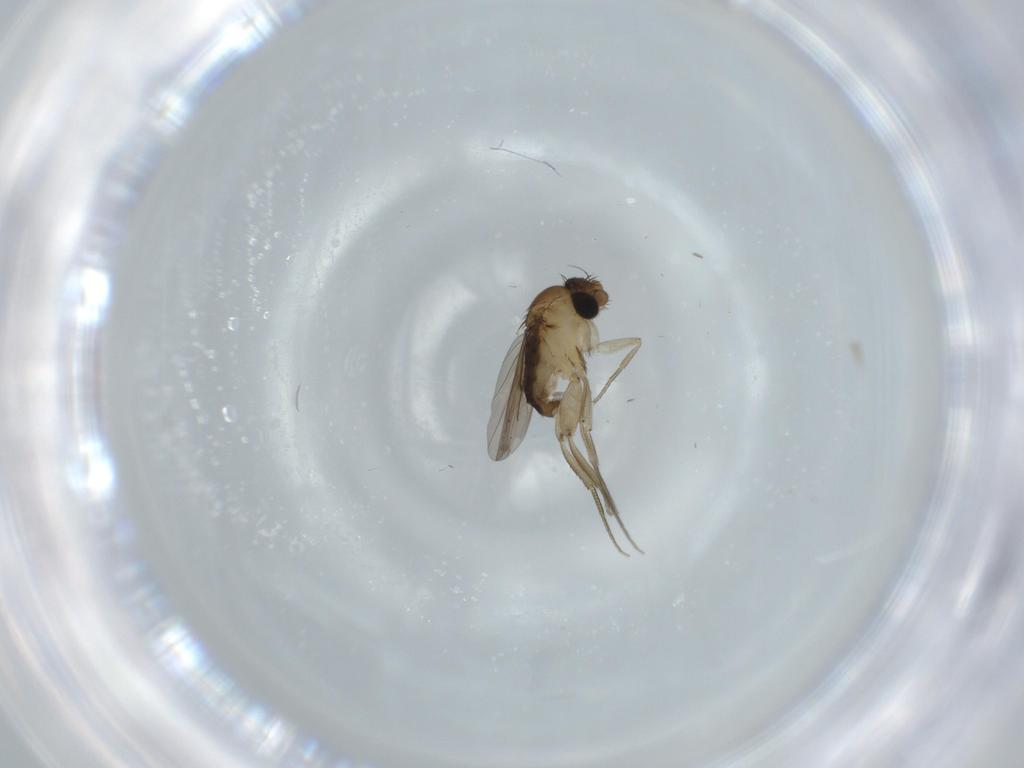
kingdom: Animalia
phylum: Arthropoda
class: Insecta
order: Diptera
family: Phoridae
